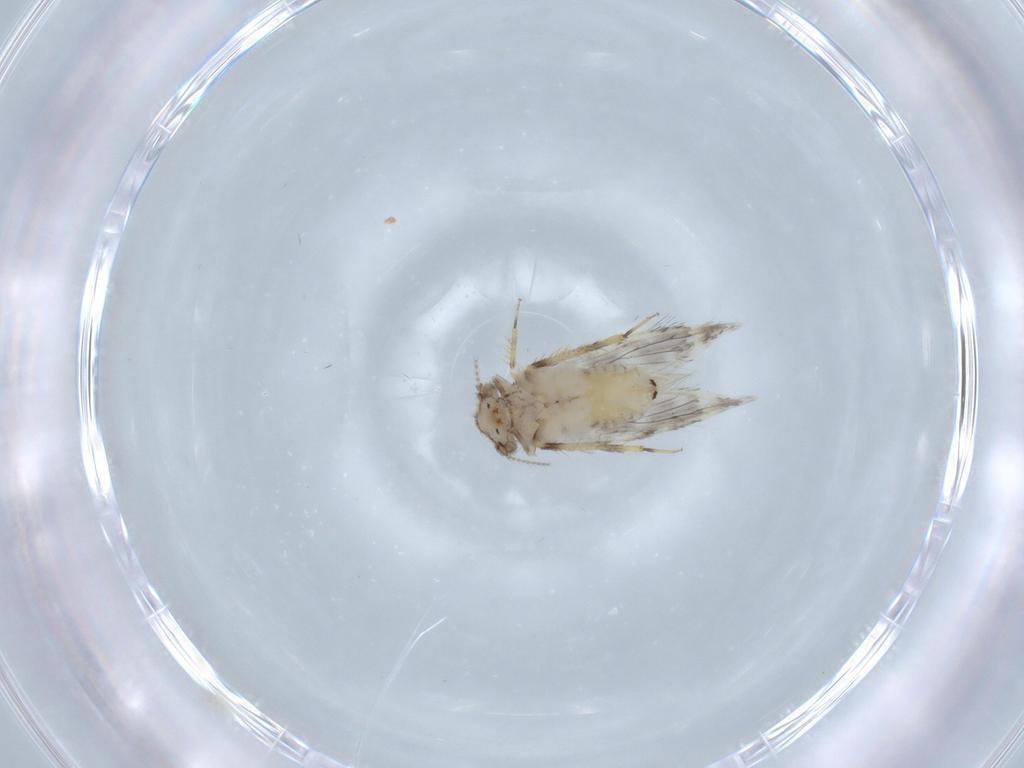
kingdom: Animalia
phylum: Arthropoda
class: Insecta
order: Psocodea
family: Lepidopsocidae
